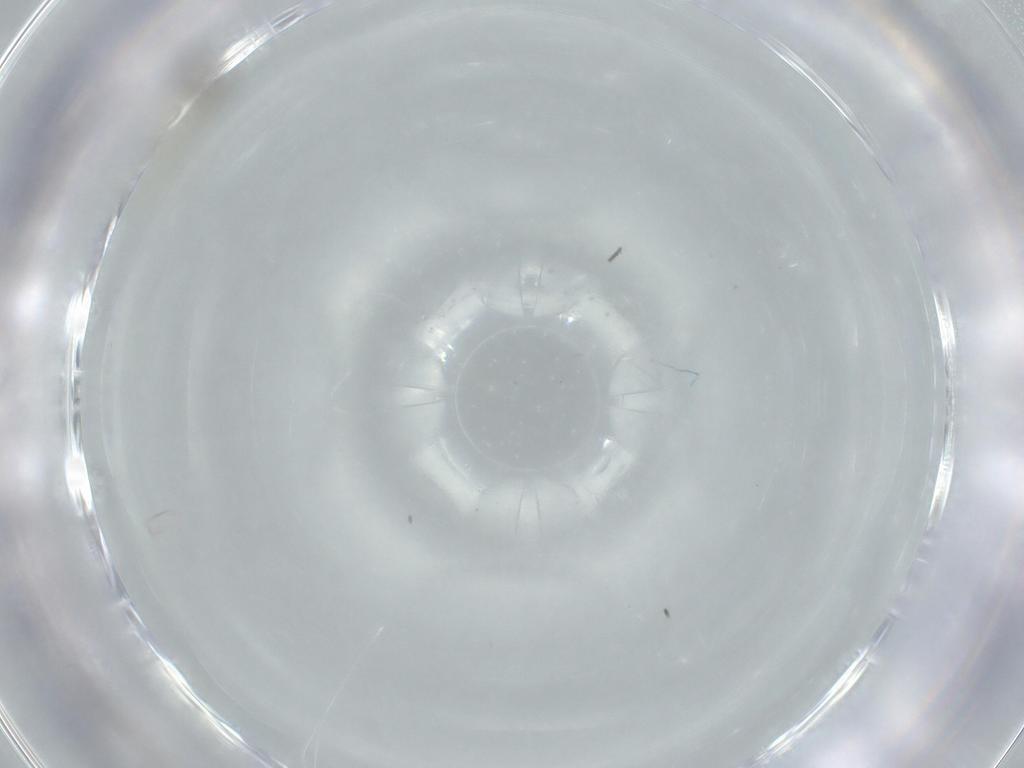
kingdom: Animalia
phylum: Arthropoda
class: Insecta
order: Diptera
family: Cecidomyiidae
